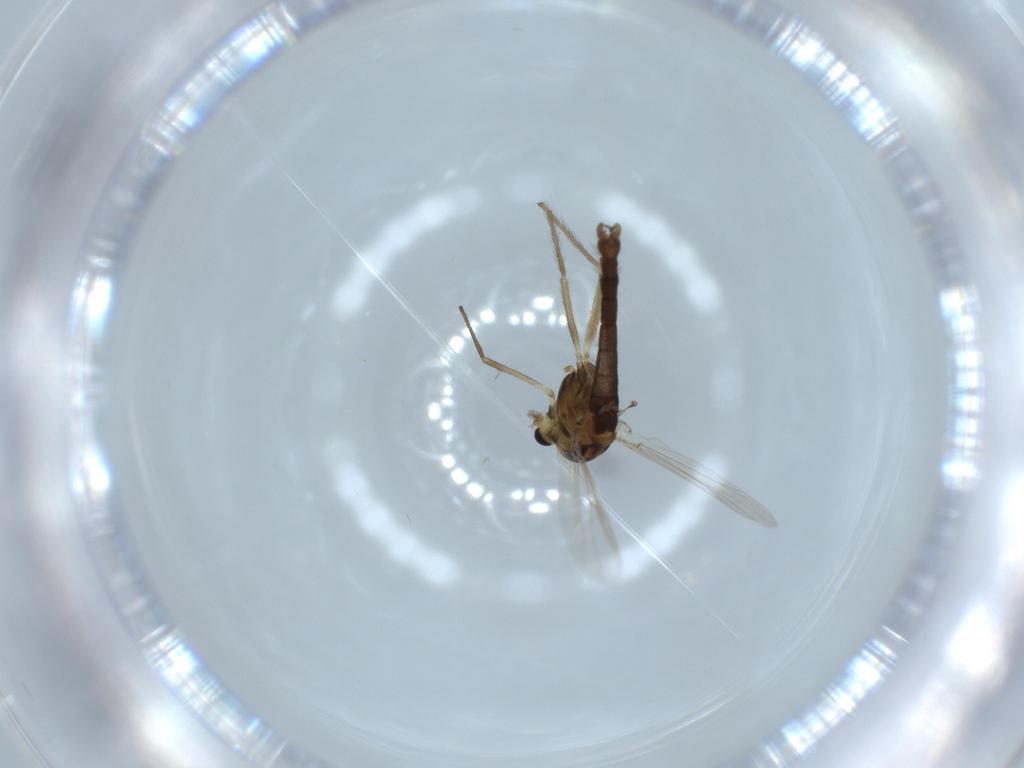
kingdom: Animalia
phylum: Arthropoda
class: Insecta
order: Diptera
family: Chironomidae
